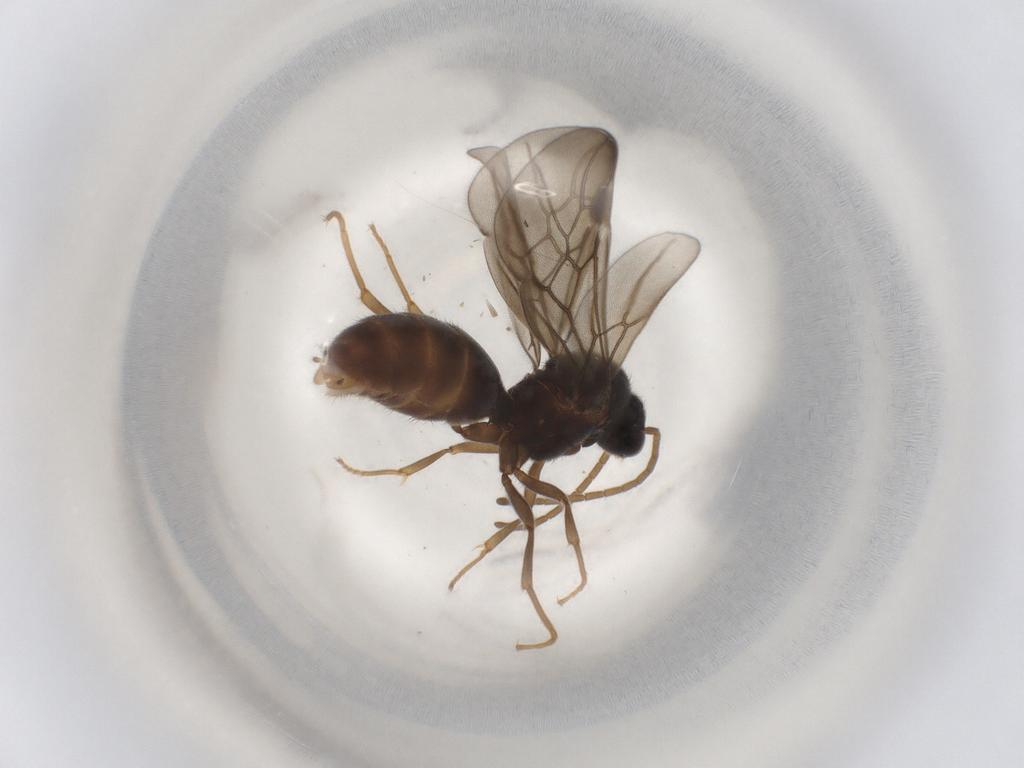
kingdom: Animalia
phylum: Arthropoda
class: Insecta
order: Hymenoptera
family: Formicidae
